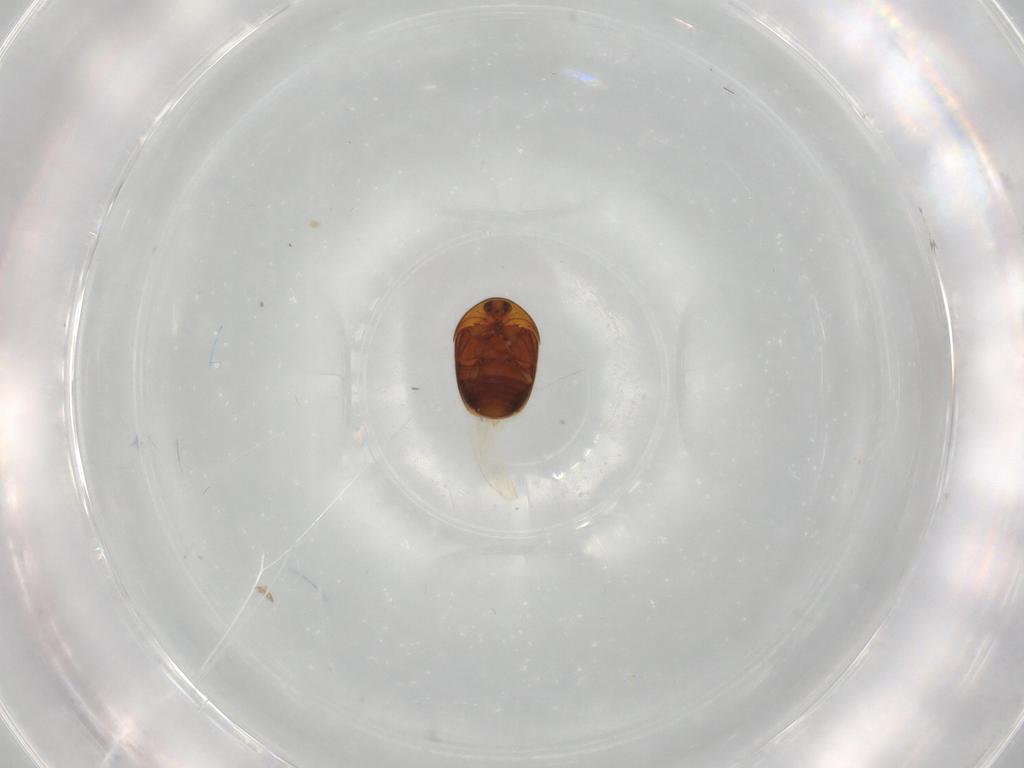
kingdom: Animalia
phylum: Arthropoda
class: Insecta
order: Coleoptera
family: Corylophidae
